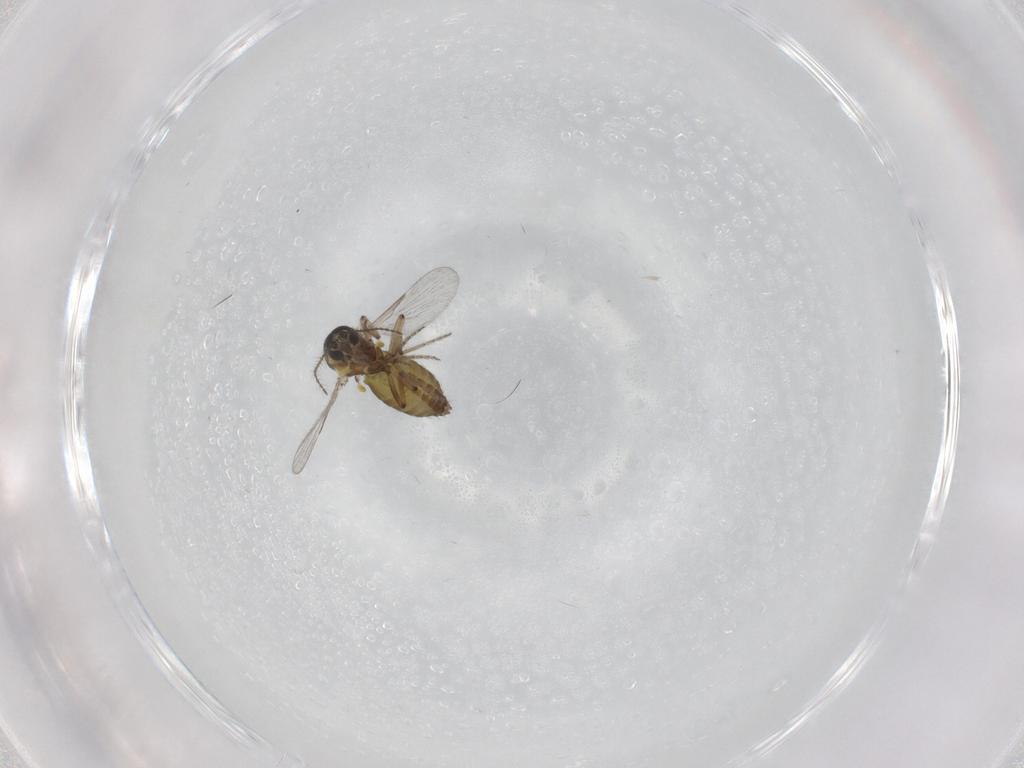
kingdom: Animalia
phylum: Arthropoda
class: Insecta
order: Diptera
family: Ceratopogonidae
